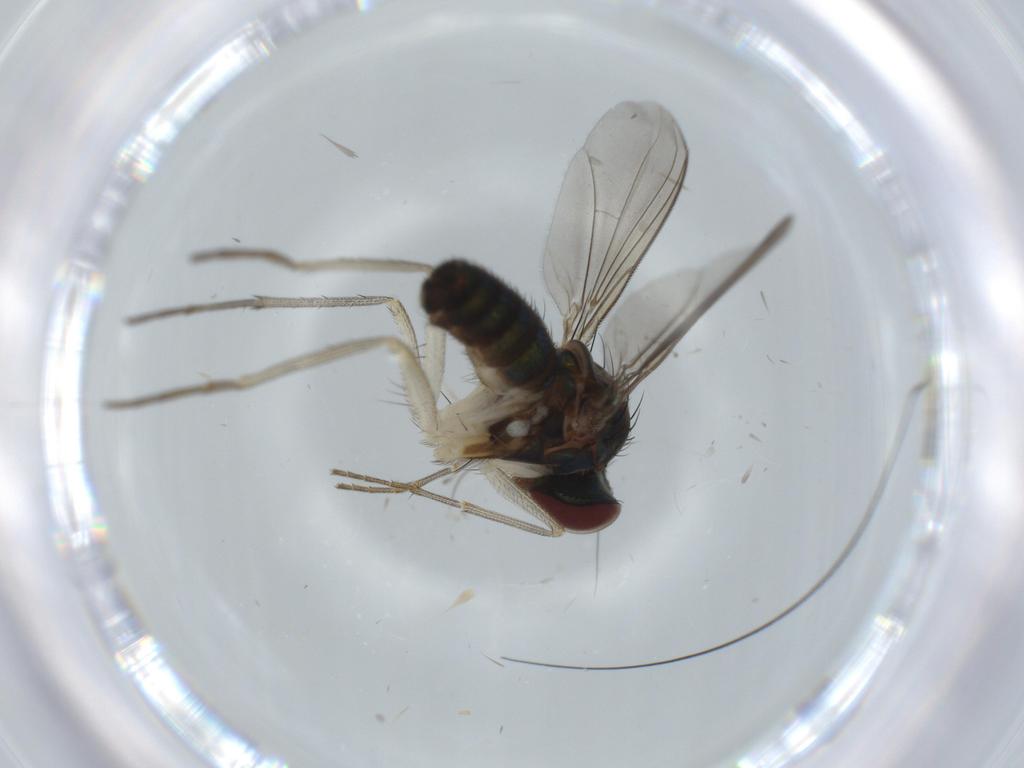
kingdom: Animalia
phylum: Arthropoda
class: Insecta
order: Diptera
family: Dolichopodidae
